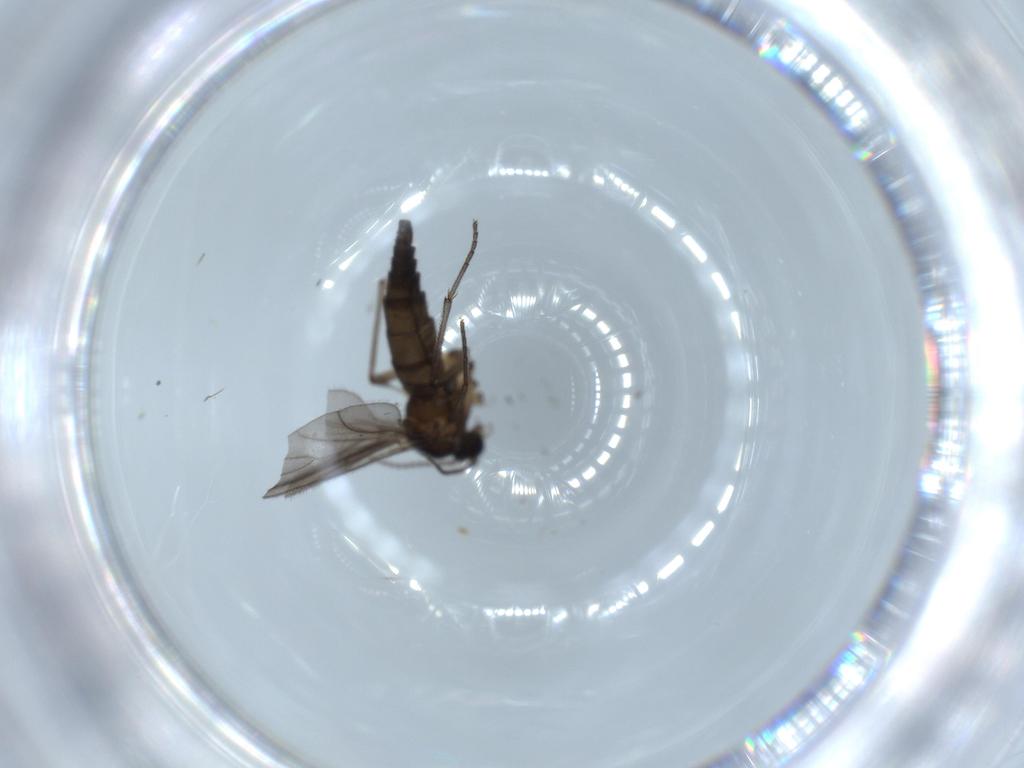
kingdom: Animalia
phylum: Arthropoda
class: Insecta
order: Diptera
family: Sciaridae
